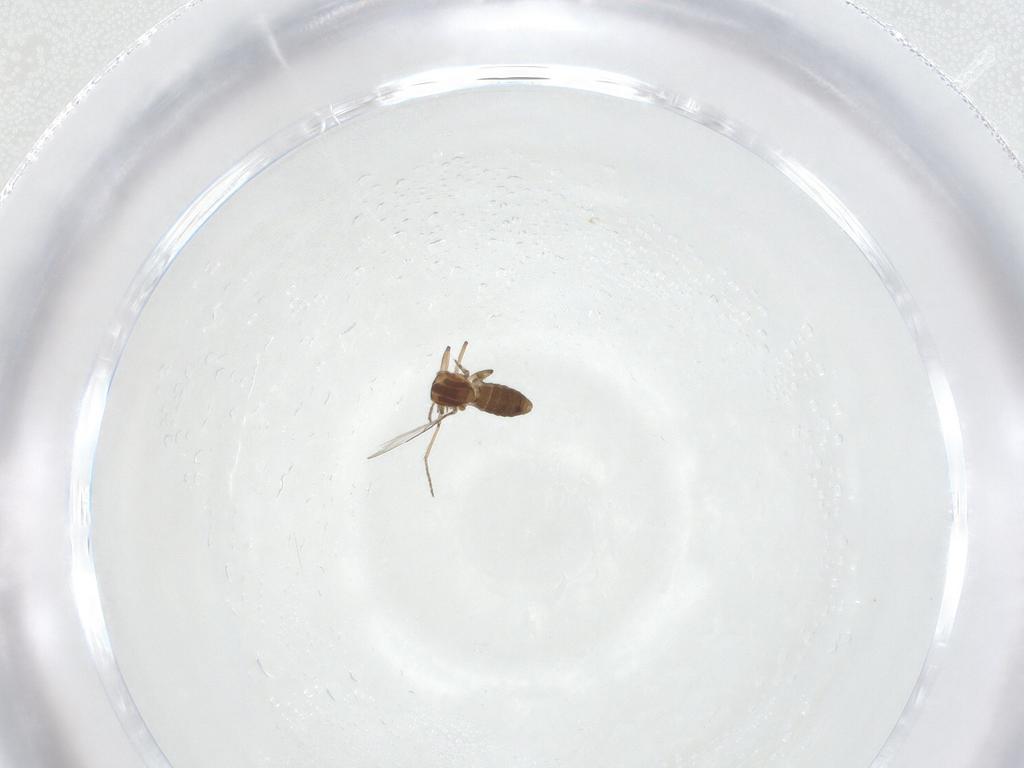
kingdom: Animalia
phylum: Arthropoda
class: Insecta
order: Diptera
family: Ceratopogonidae
